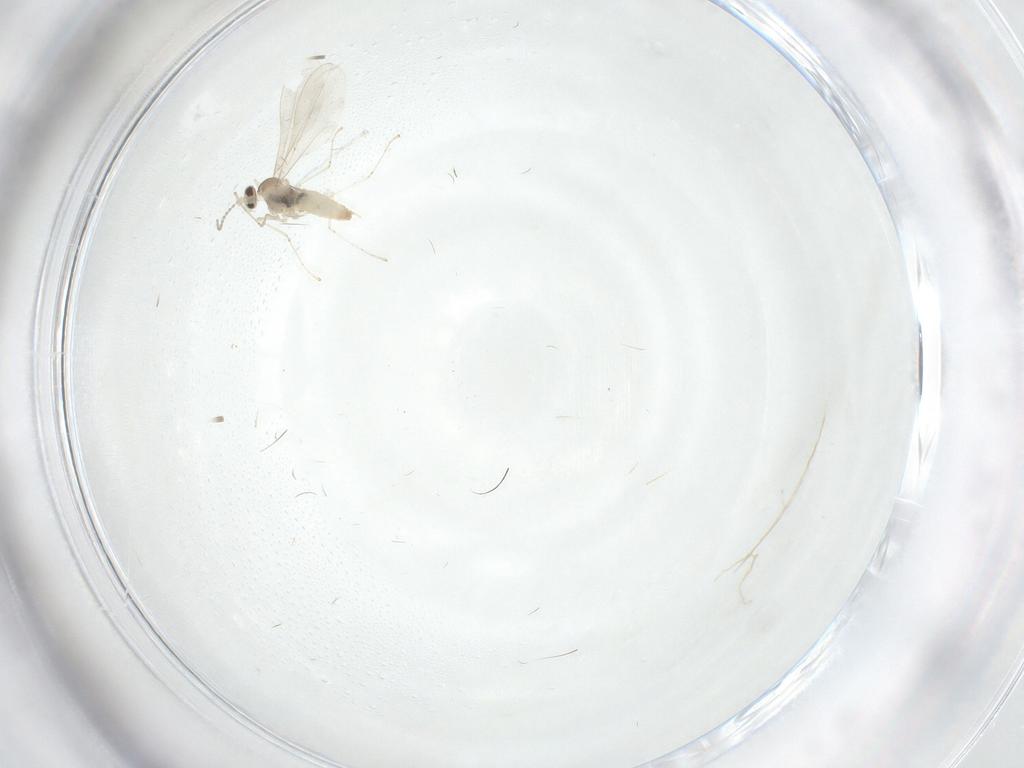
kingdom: Animalia
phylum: Arthropoda
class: Insecta
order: Diptera
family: Cecidomyiidae
